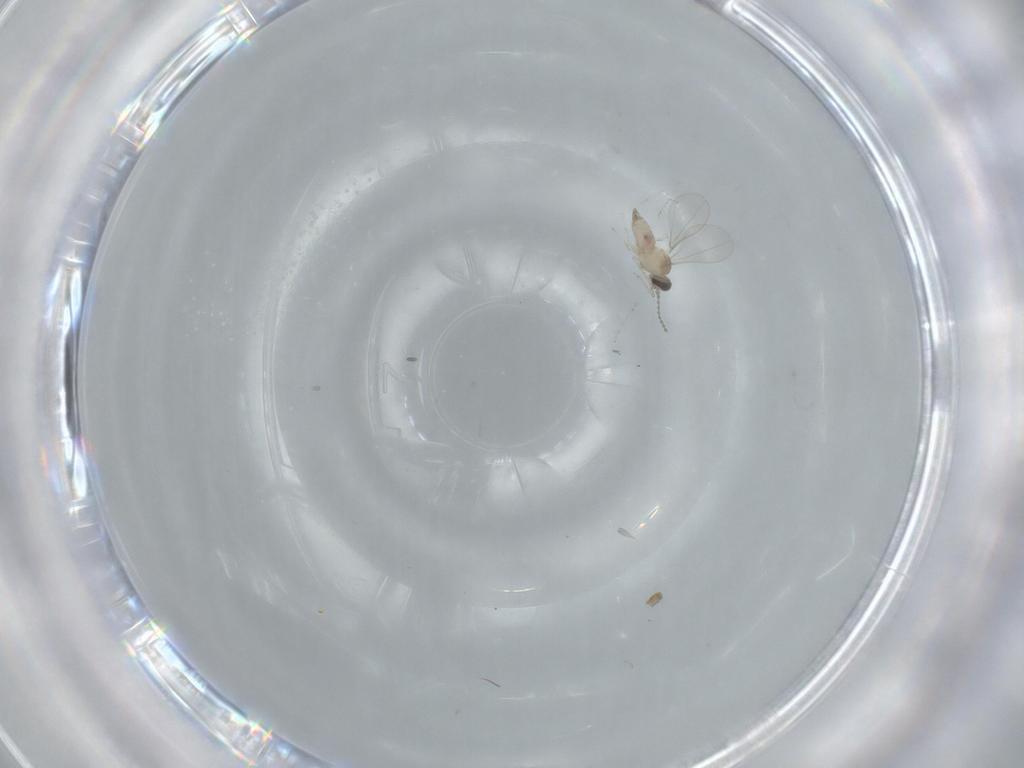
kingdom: Animalia
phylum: Arthropoda
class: Insecta
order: Diptera
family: Cecidomyiidae
